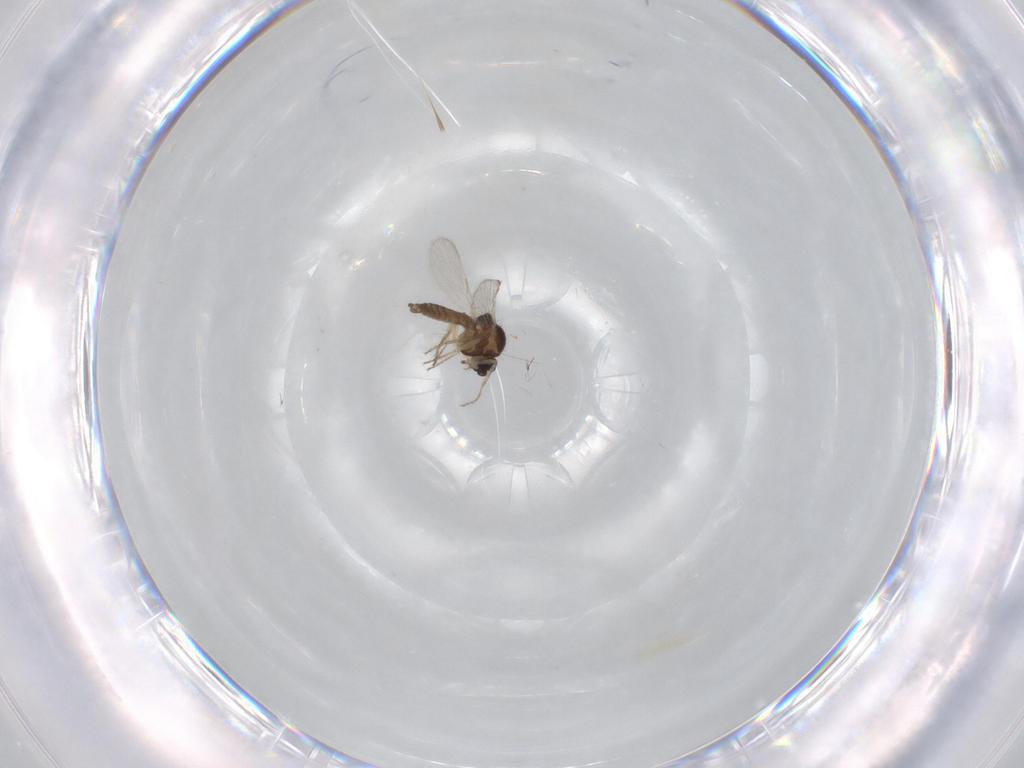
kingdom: Animalia
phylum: Arthropoda
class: Insecta
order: Diptera
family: Ceratopogonidae
